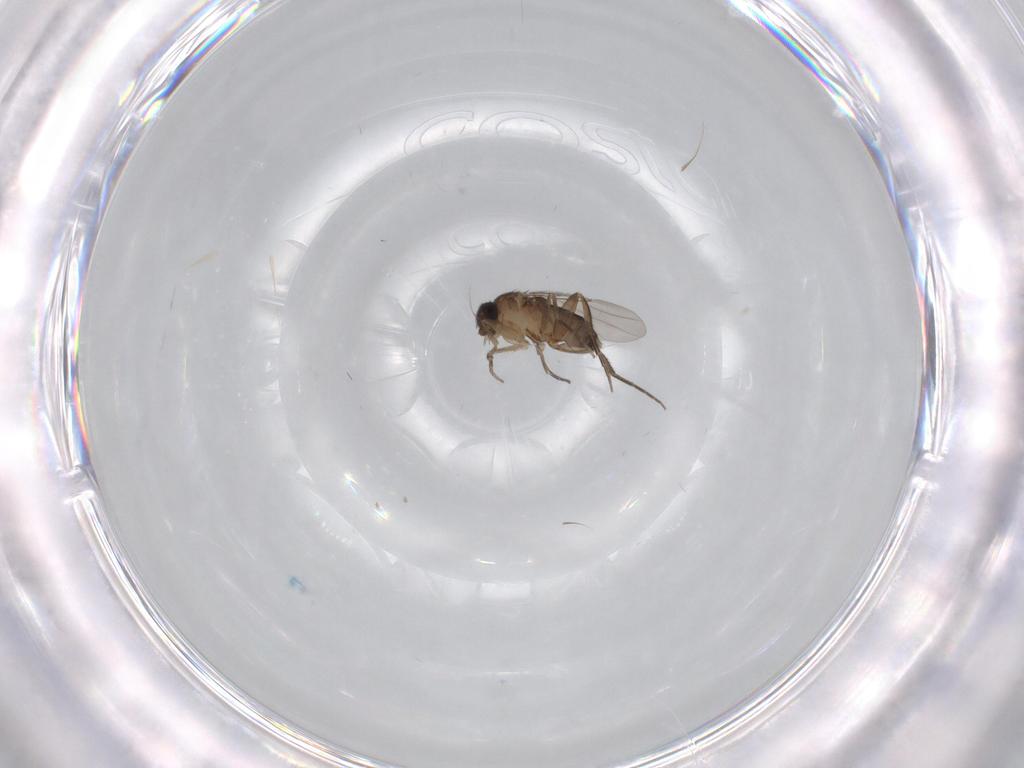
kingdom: Animalia
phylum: Arthropoda
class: Insecta
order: Diptera
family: Phoridae
